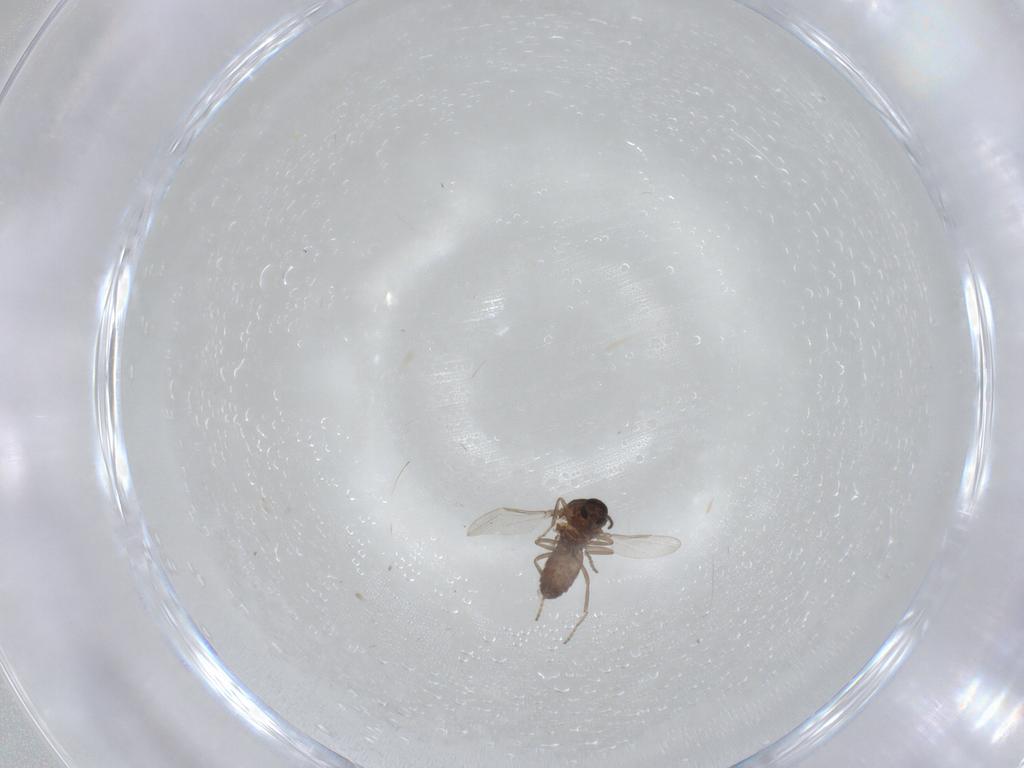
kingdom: Animalia
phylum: Arthropoda
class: Insecta
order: Diptera
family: Ceratopogonidae
